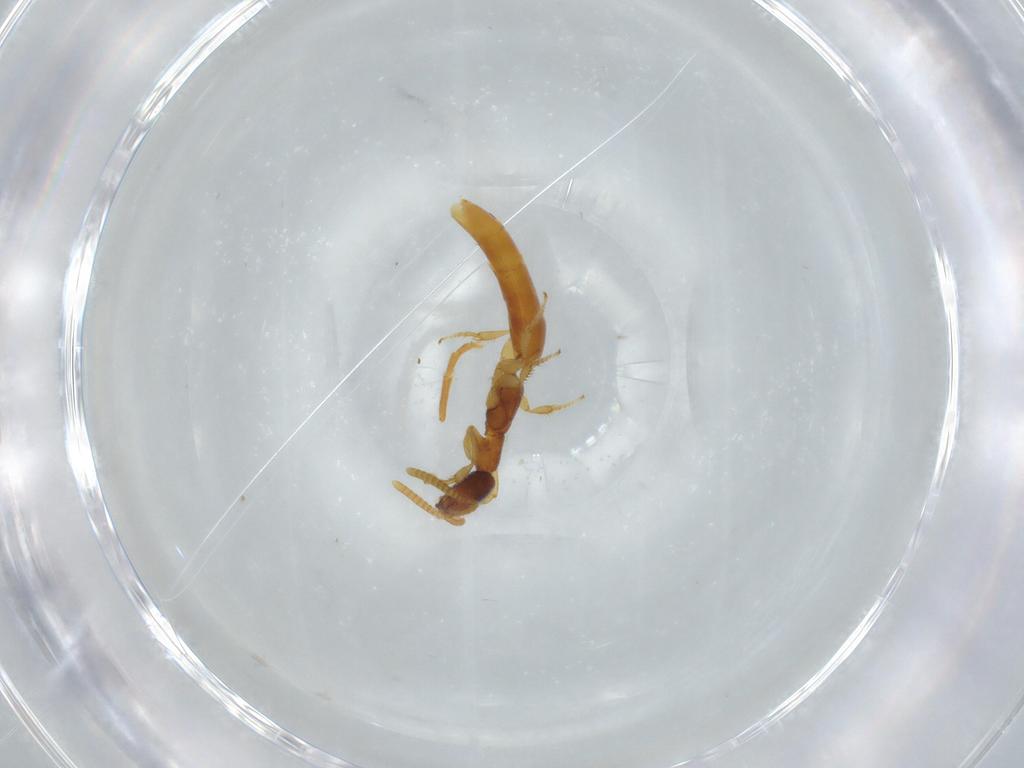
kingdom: Animalia
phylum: Arthropoda
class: Insecta
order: Hymenoptera
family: Bethylidae
